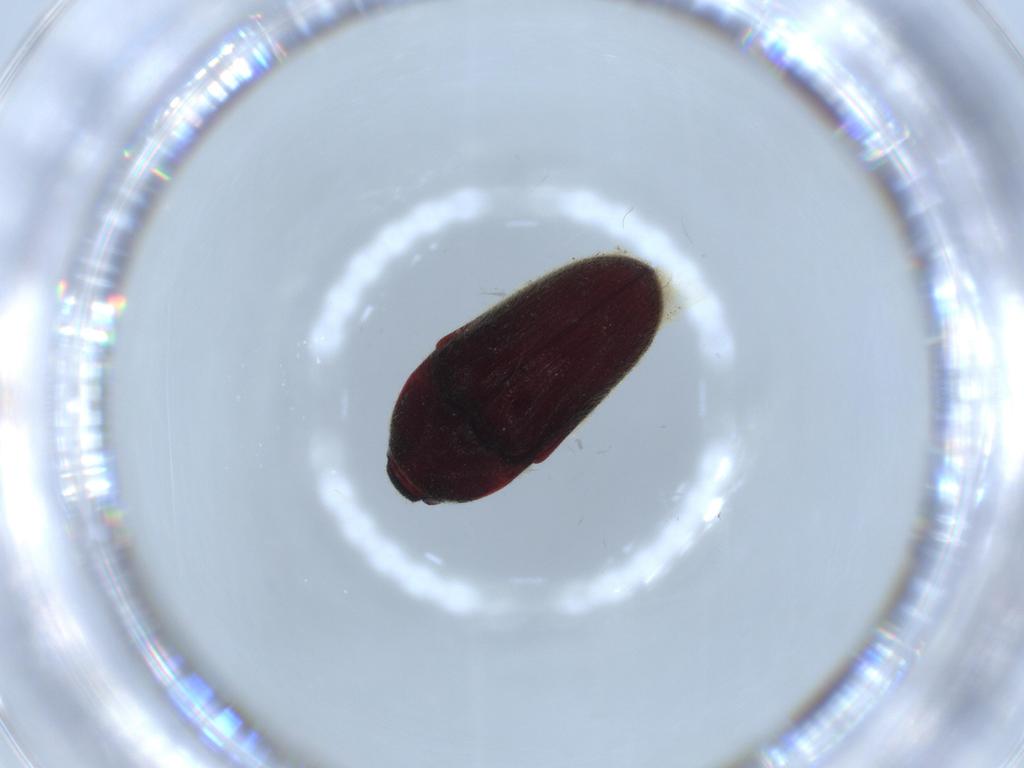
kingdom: Animalia
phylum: Arthropoda
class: Insecta
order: Coleoptera
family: Throscidae
